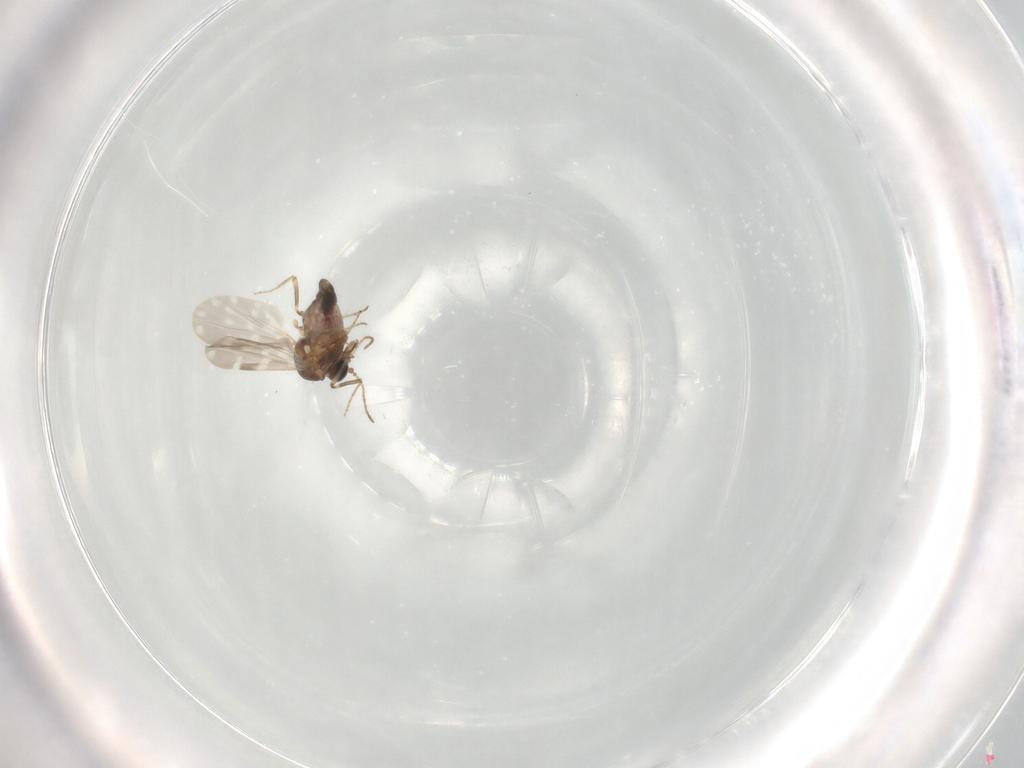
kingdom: Animalia
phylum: Arthropoda
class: Insecta
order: Diptera
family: Ceratopogonidae
